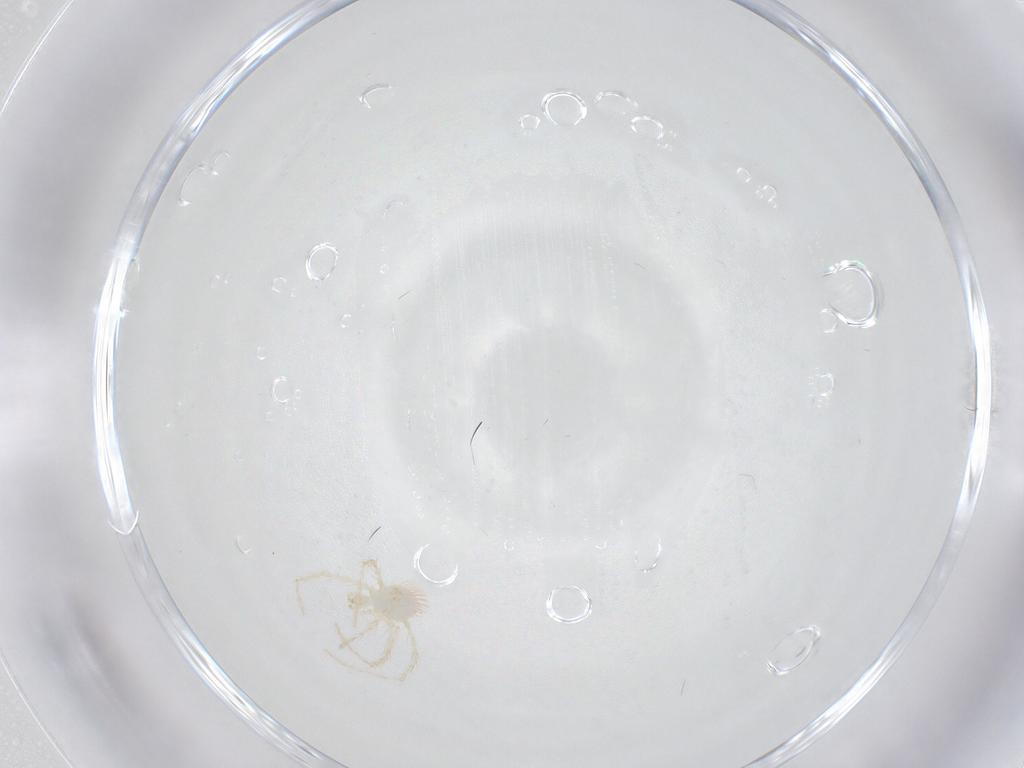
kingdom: Animalia
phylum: Arthropoda
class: Arachnida
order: Trombidiformes
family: Erythraeidae
